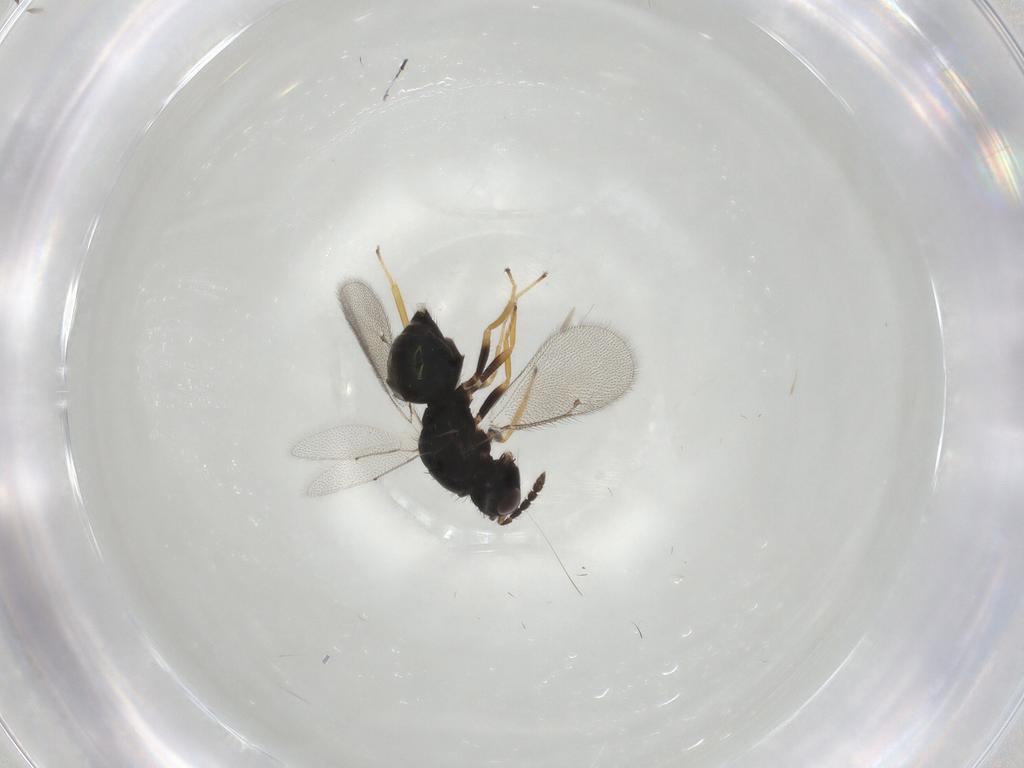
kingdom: Animalia
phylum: Arthropoda
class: Insecta
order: Hymenoptera
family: Eulophidae
